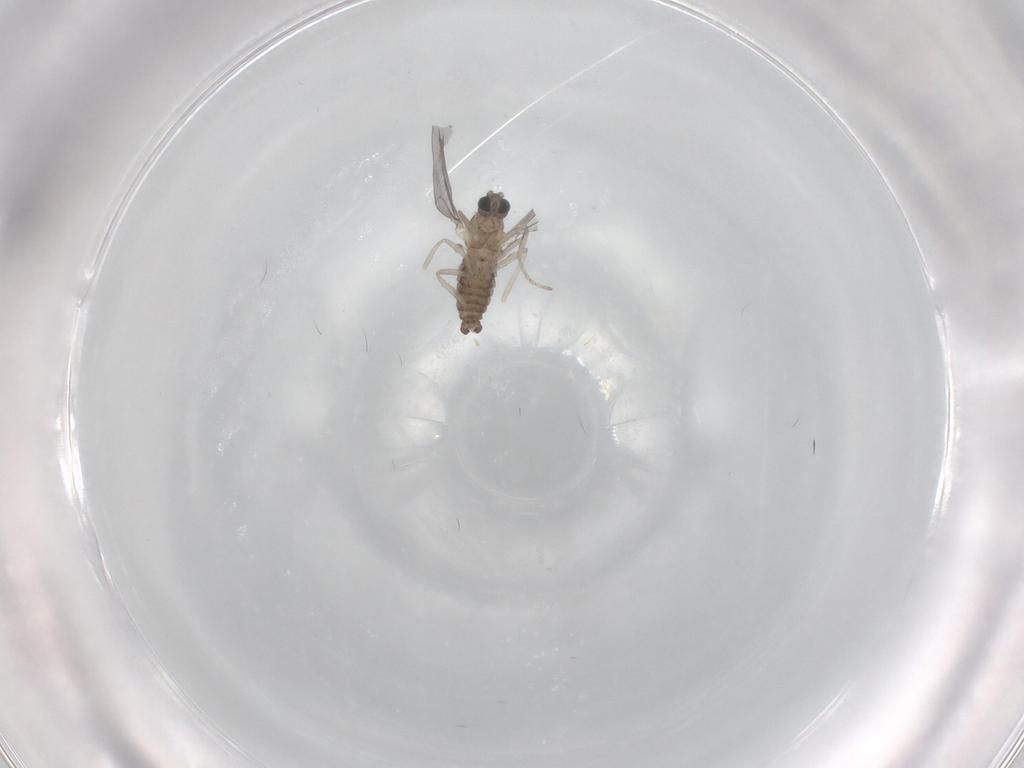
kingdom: Animalia
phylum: Arthropoda
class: Insecta
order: Diptera
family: Cecidomyiidae
